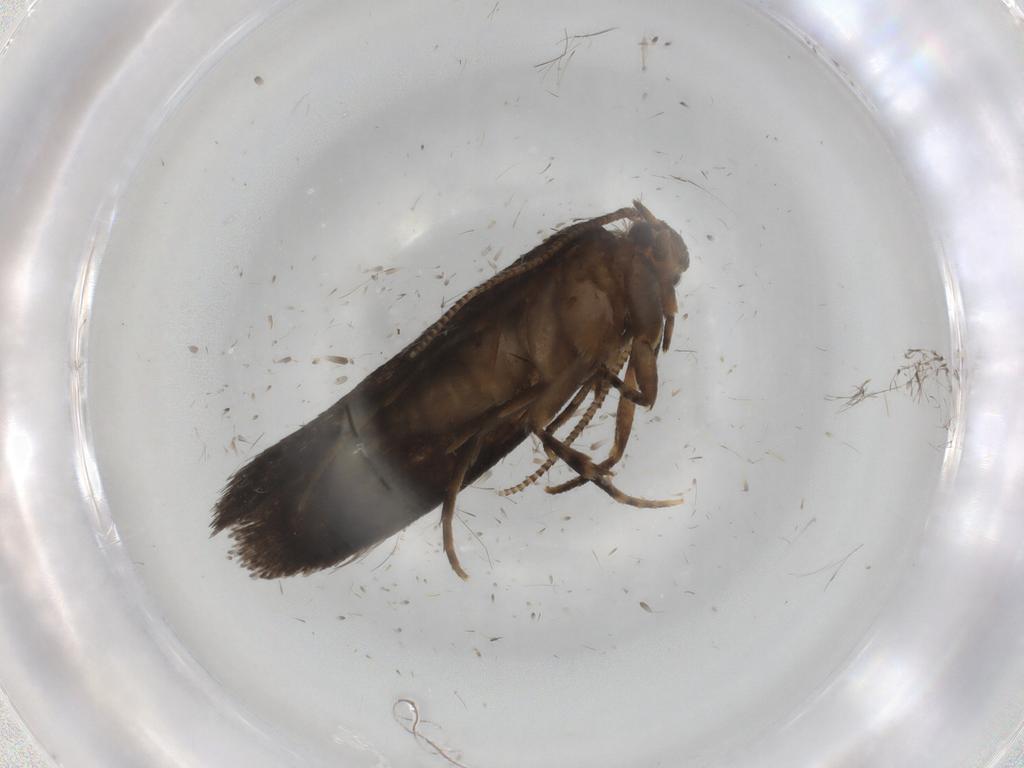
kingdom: Animalia
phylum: Arthropoda
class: Insecta
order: Lepidoptera
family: Tineidae
